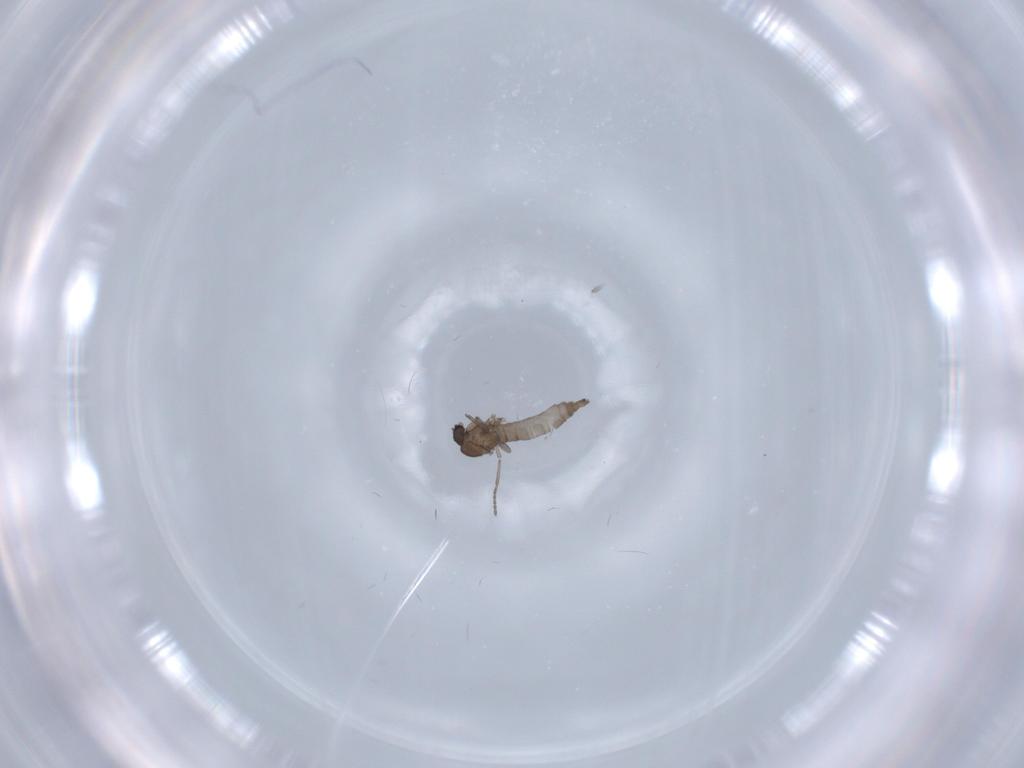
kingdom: Animalia
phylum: Arthropoda
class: Insecta
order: Diptera
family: Sciaridae
